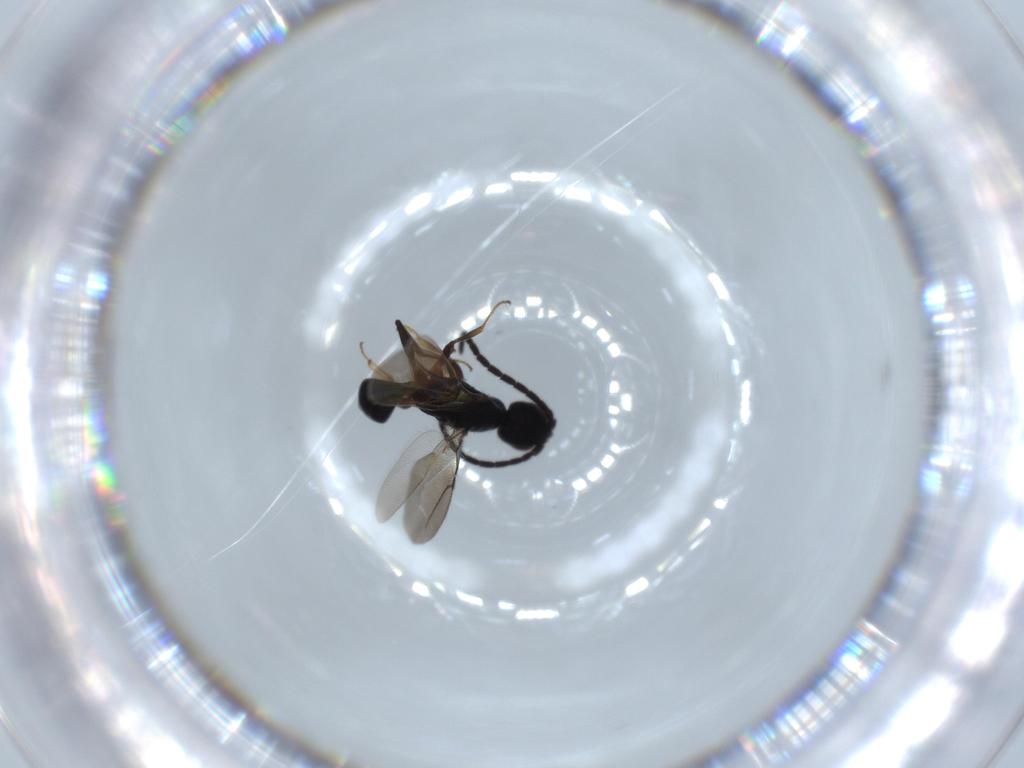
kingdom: Animalia
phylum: Arthropoda
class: Insecta
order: Hymenoptera
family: Bethylidae
